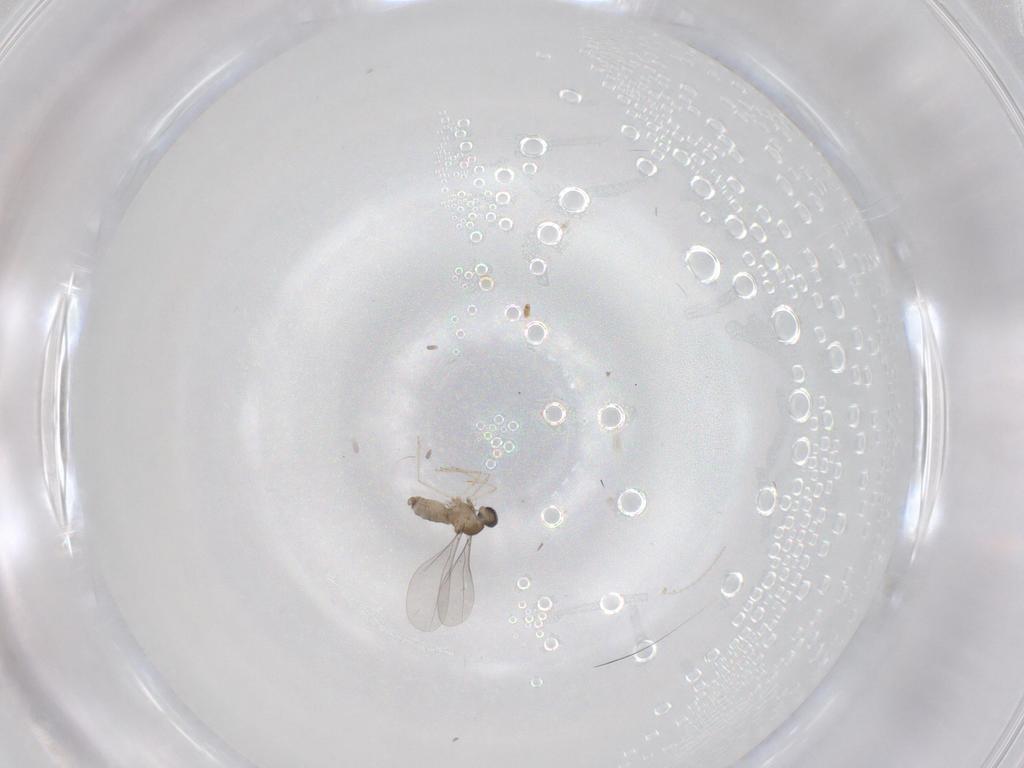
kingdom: Animalia
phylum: Arthropoda
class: Insecta
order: Diptera
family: Cecidomyiidae
